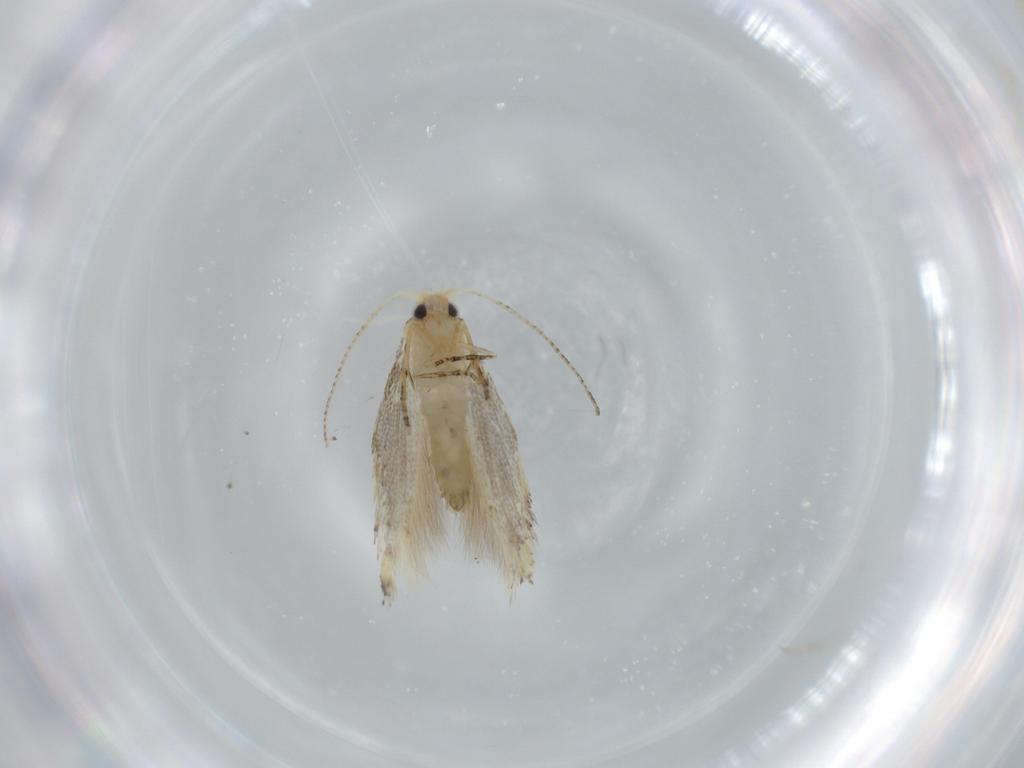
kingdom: Animalia
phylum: Arthropoda
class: Insecta
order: Lepidoptera
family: Bucculatricidae
